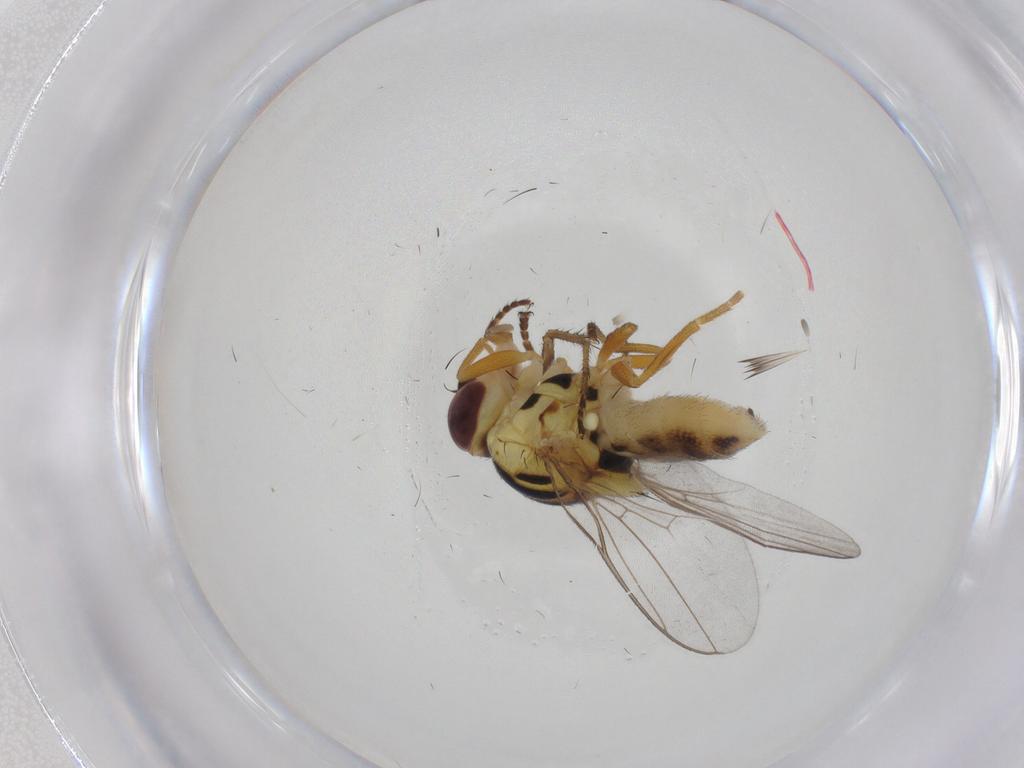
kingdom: Animalia
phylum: Arthropoda
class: Insecta
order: Diptera
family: Chloropidae
